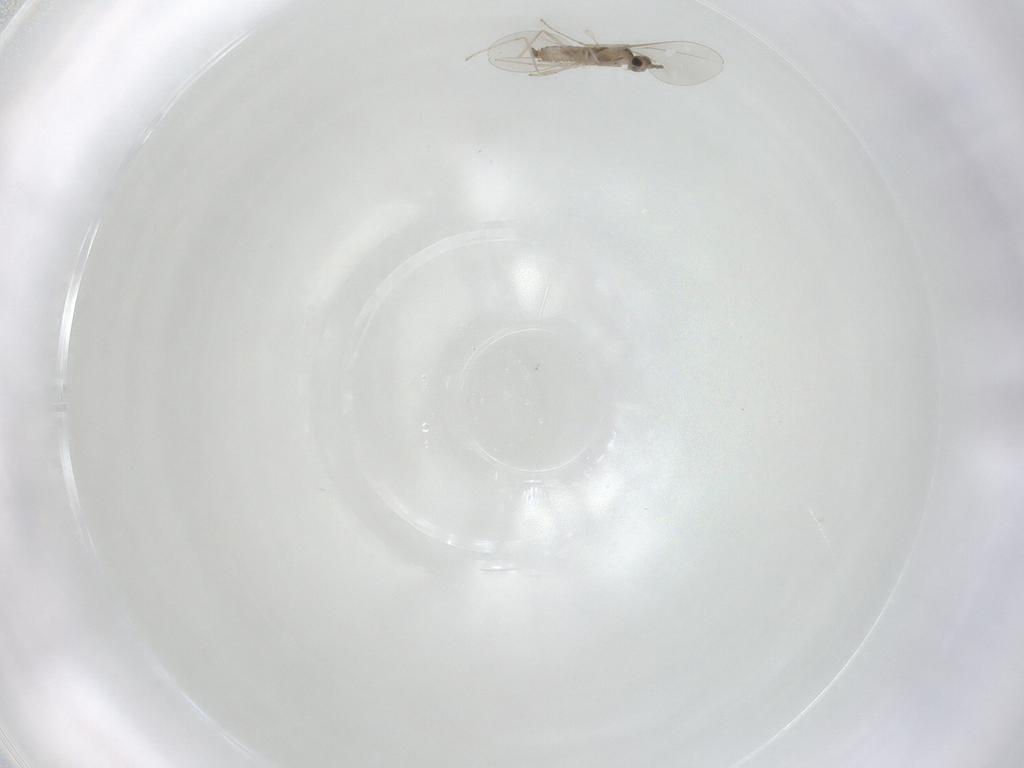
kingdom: Animalia
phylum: Arthropoda
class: Insecta
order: Diptera
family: Cecidomyiidae
